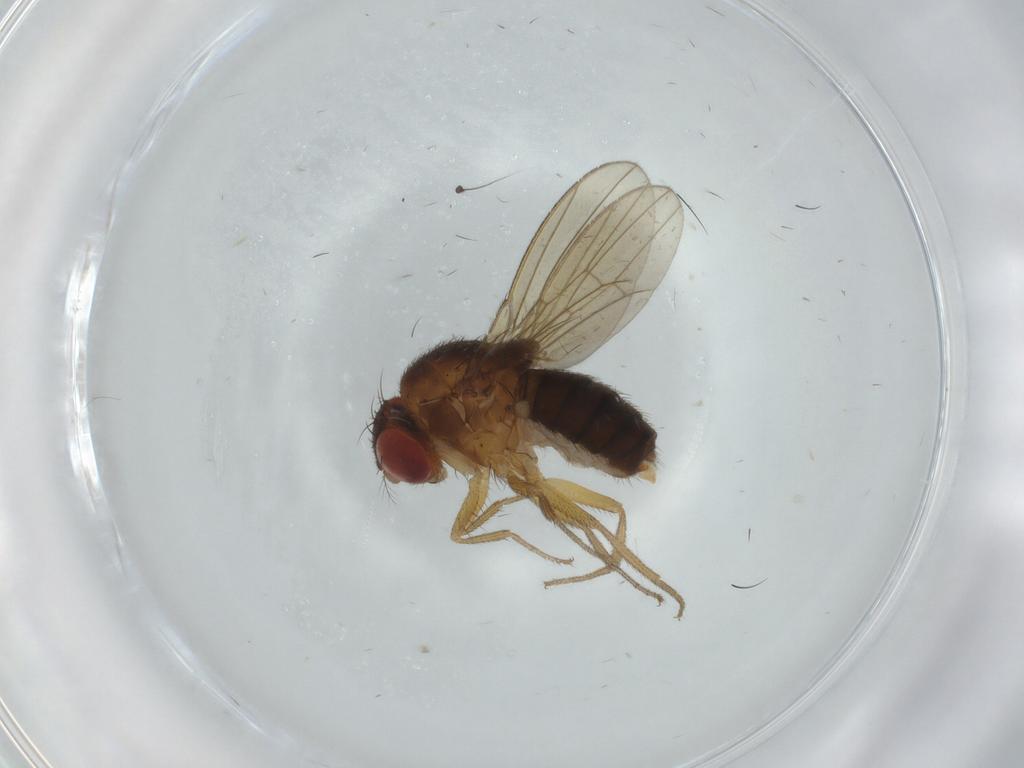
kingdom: Animalia
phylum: Arthropoda
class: Insecta
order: Diptera
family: Drosophilidae
